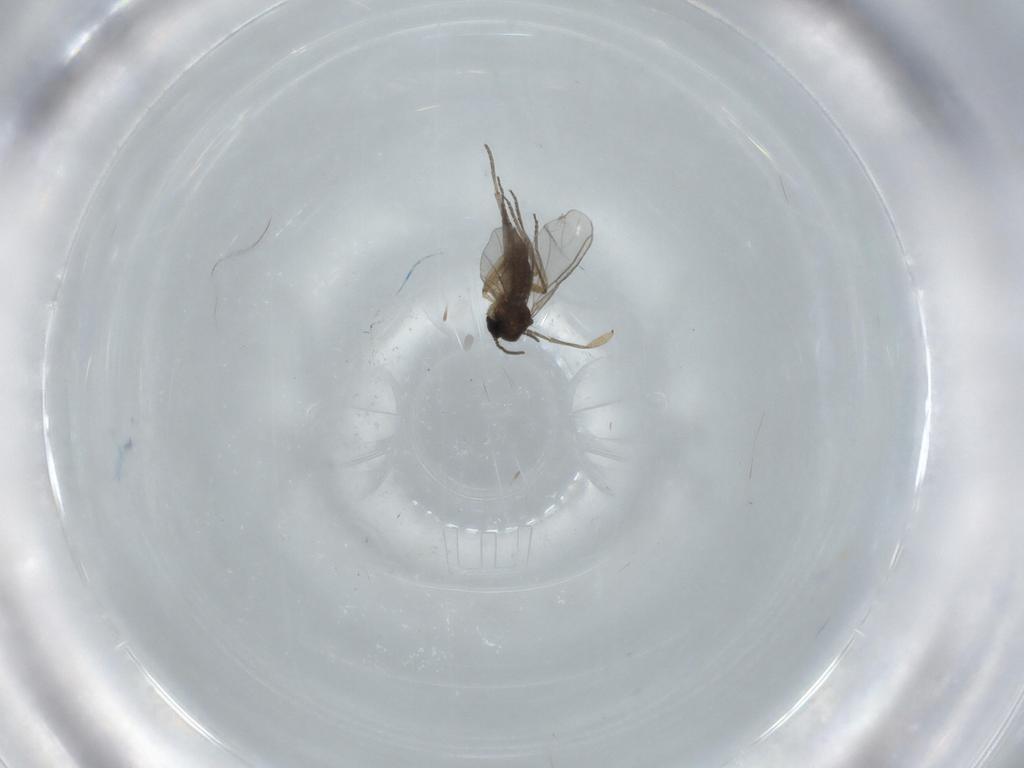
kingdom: Animalia
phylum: Arthropoda
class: Insecta
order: Diptera
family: Sciaridae
